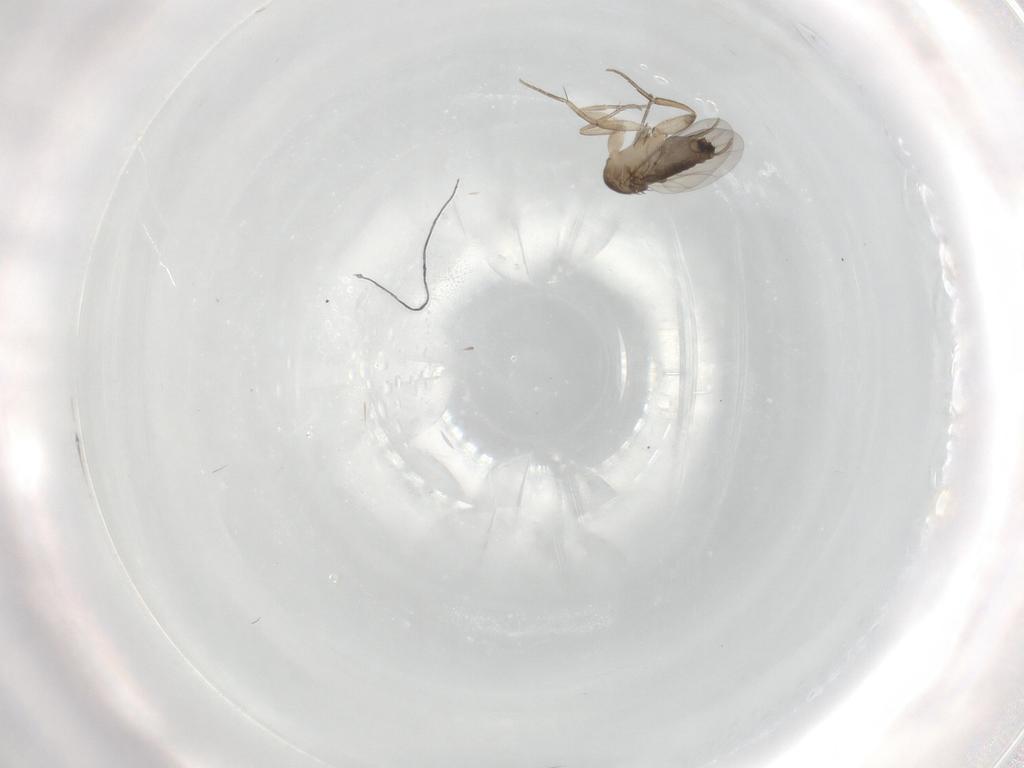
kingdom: Animalia
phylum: Arthropoda
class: Insecta
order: Diptera
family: Phoridae
